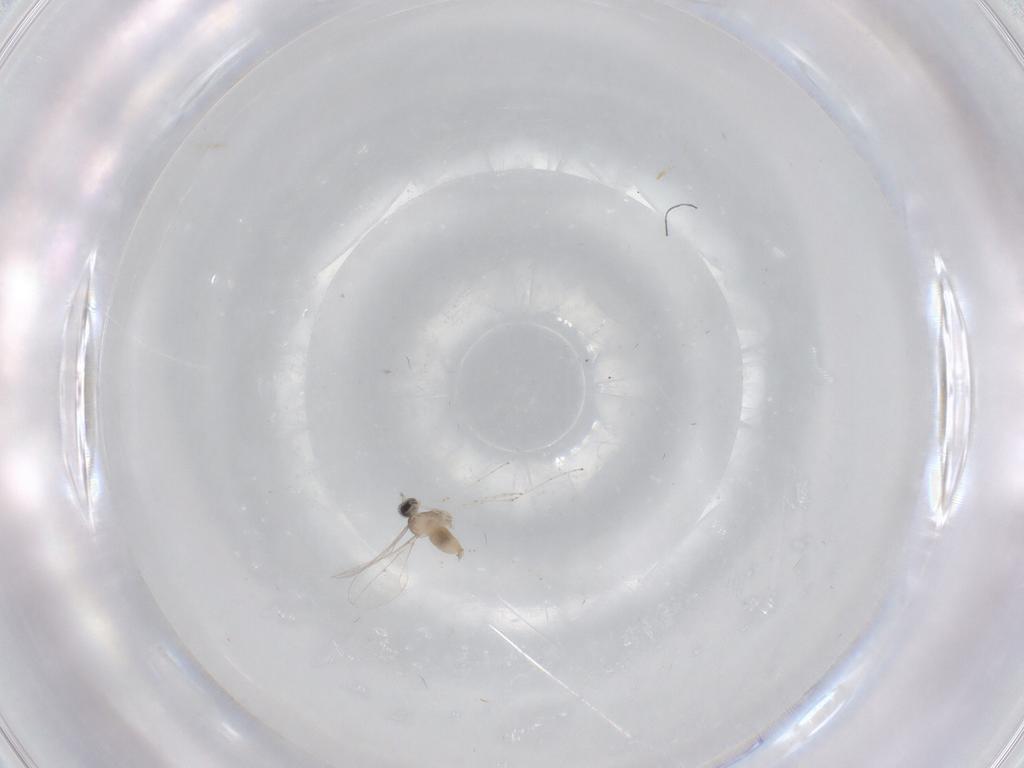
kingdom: Animalia
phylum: Arthropoda
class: Insecta
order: Diptera
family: Cecidomyiidae
